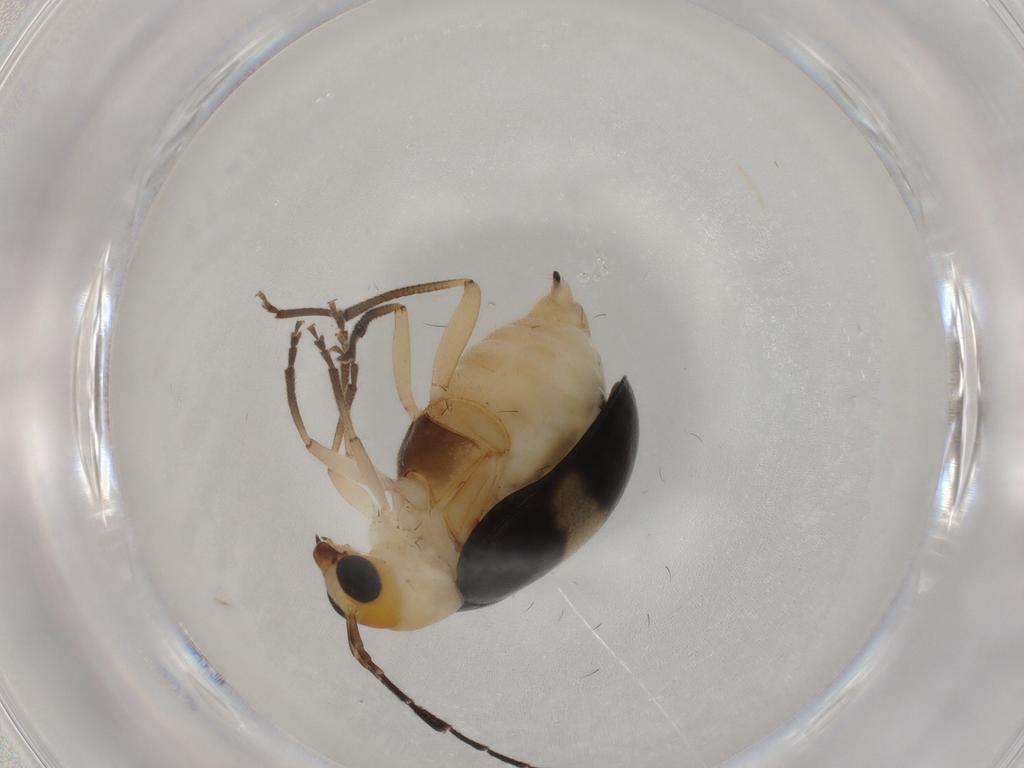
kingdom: Animalia
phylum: Arthropoda
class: Insecta
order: Coleoptera
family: Chrysomelidae
